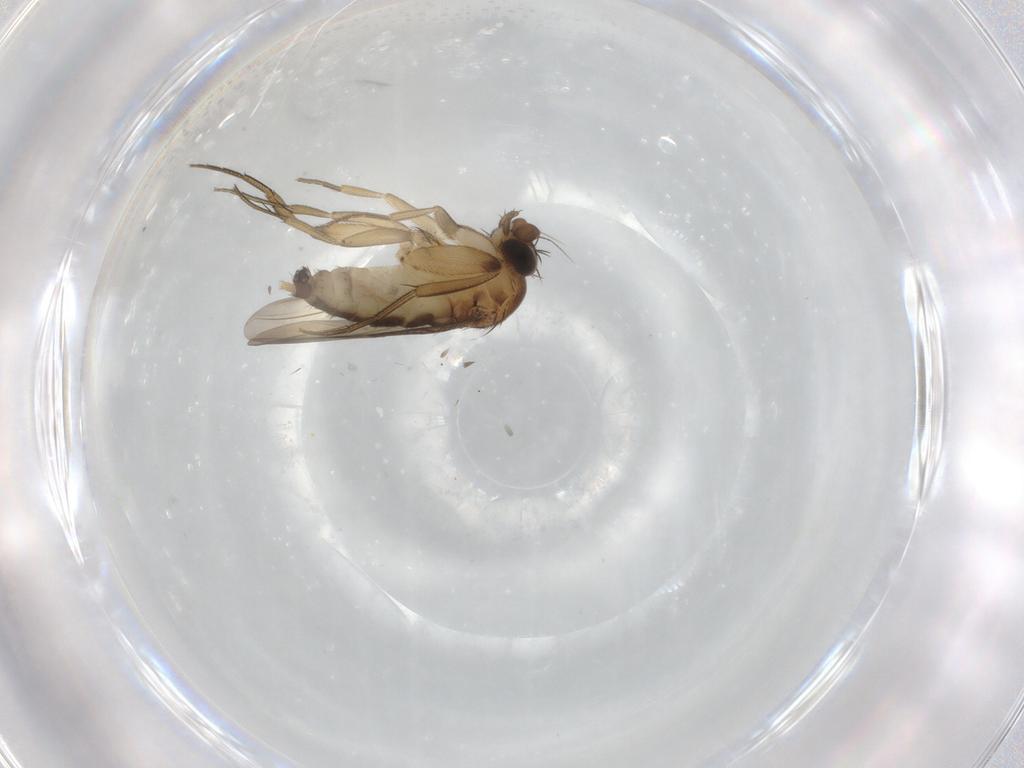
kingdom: Animalia
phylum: Arthropoda
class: Insecta
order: Diptera
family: Phoridae
